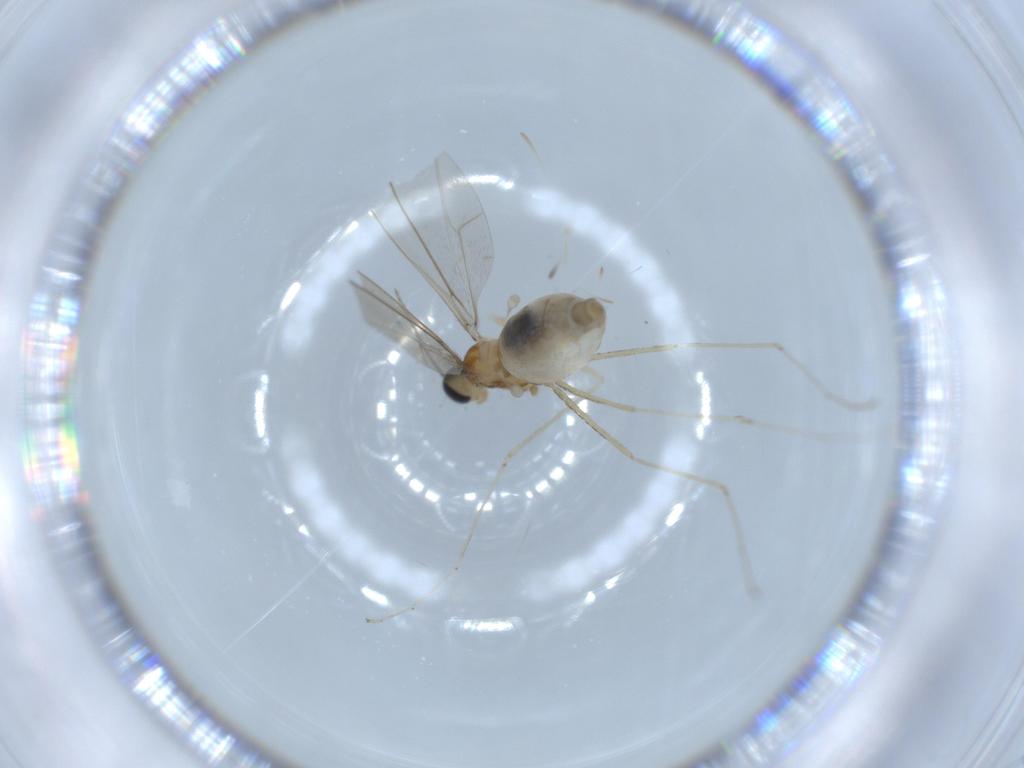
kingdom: Animalia
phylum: Arthropoda
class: Insecta
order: Diptera
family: Cecidomyiidae
